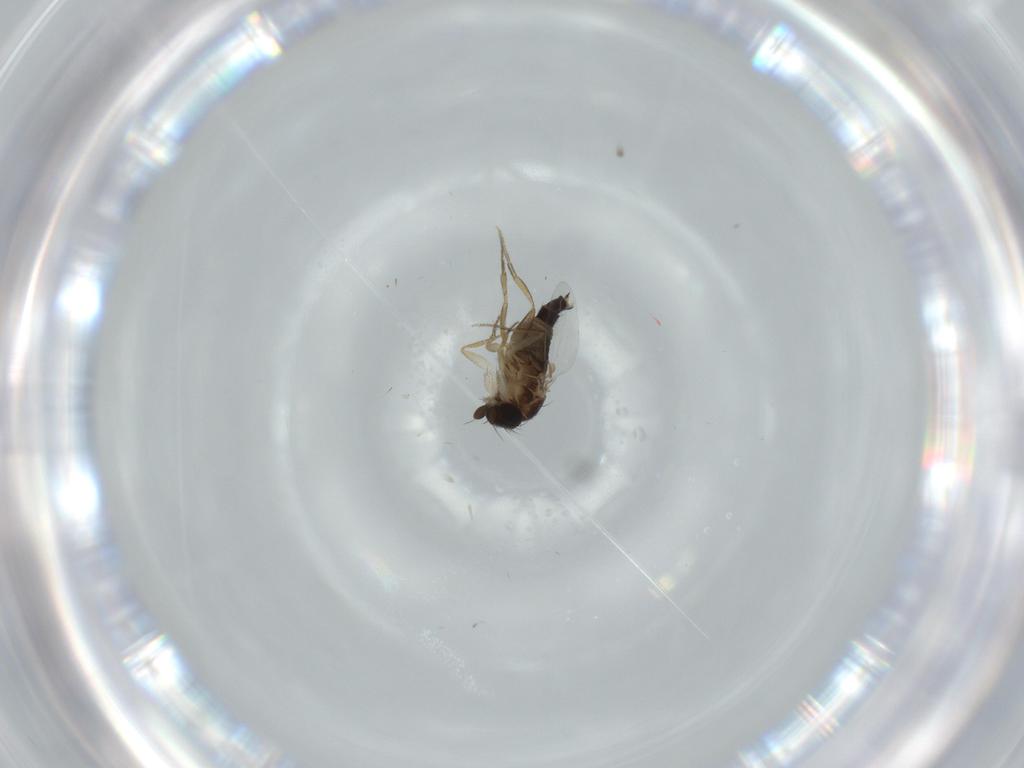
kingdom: Animalia
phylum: Arthropoda
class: Insecta
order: Diptera
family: Phoridae
